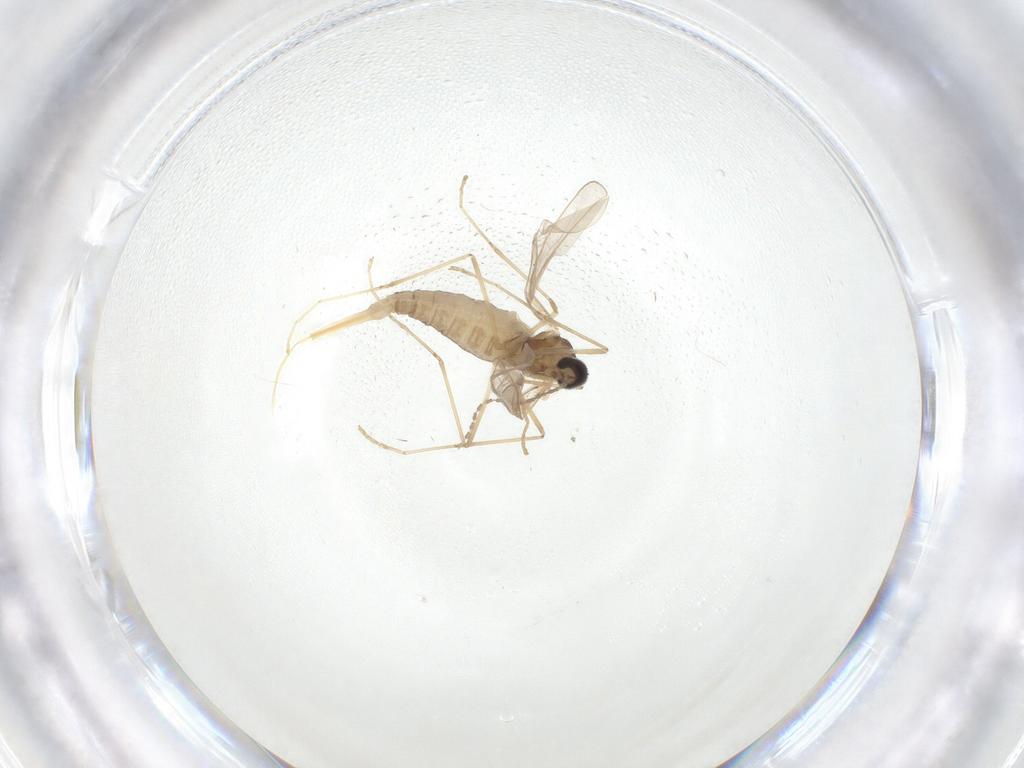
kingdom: Animalia
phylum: Arthropoda
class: Insecta
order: Diptera
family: Cecidomyiidae
